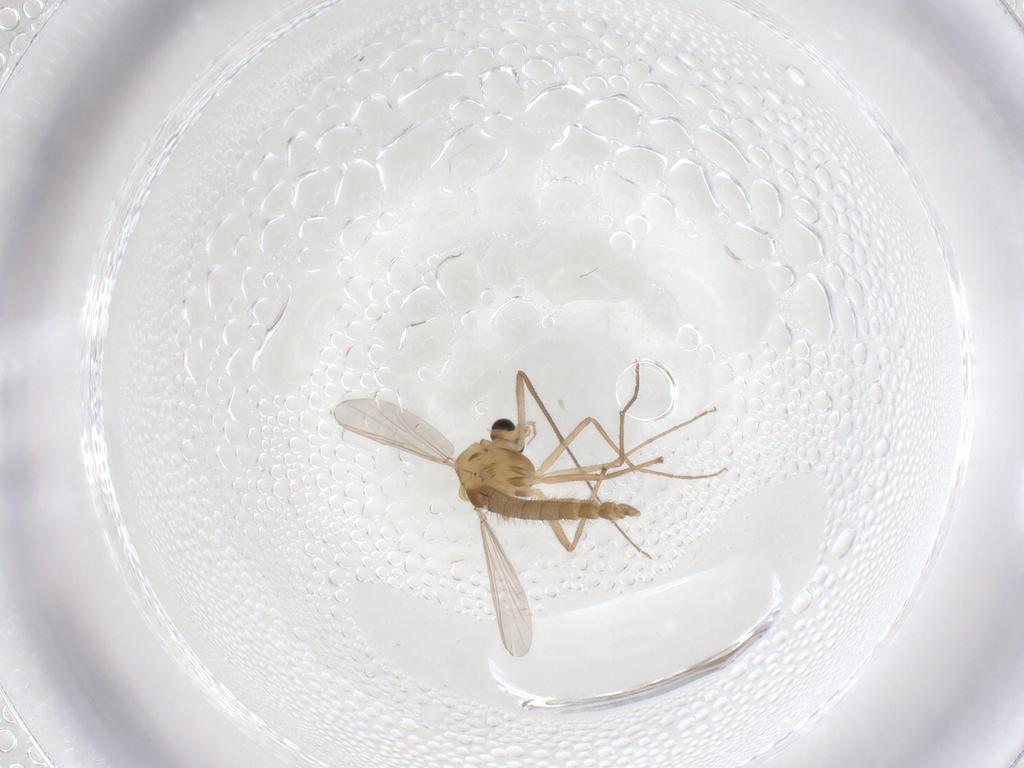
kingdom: Animalia
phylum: Arthropoda
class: Insecta
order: Diptera
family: Chironomidae
